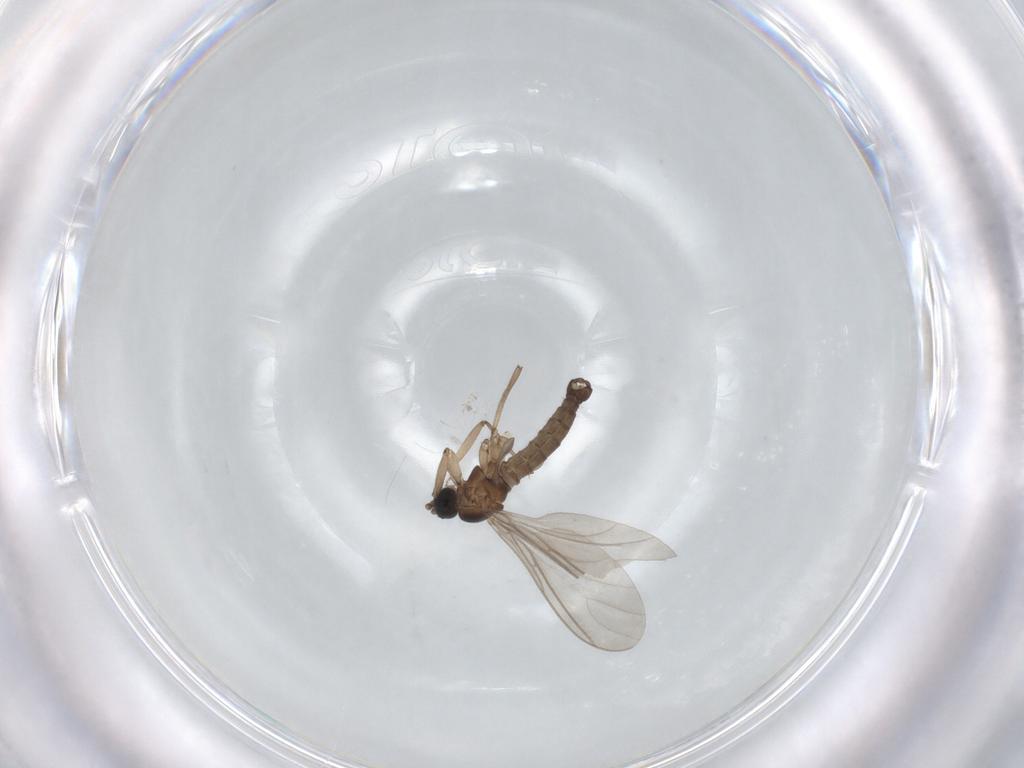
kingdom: Animalia
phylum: Arthropoda
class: Insecta
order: Diptera
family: Sciaridae
